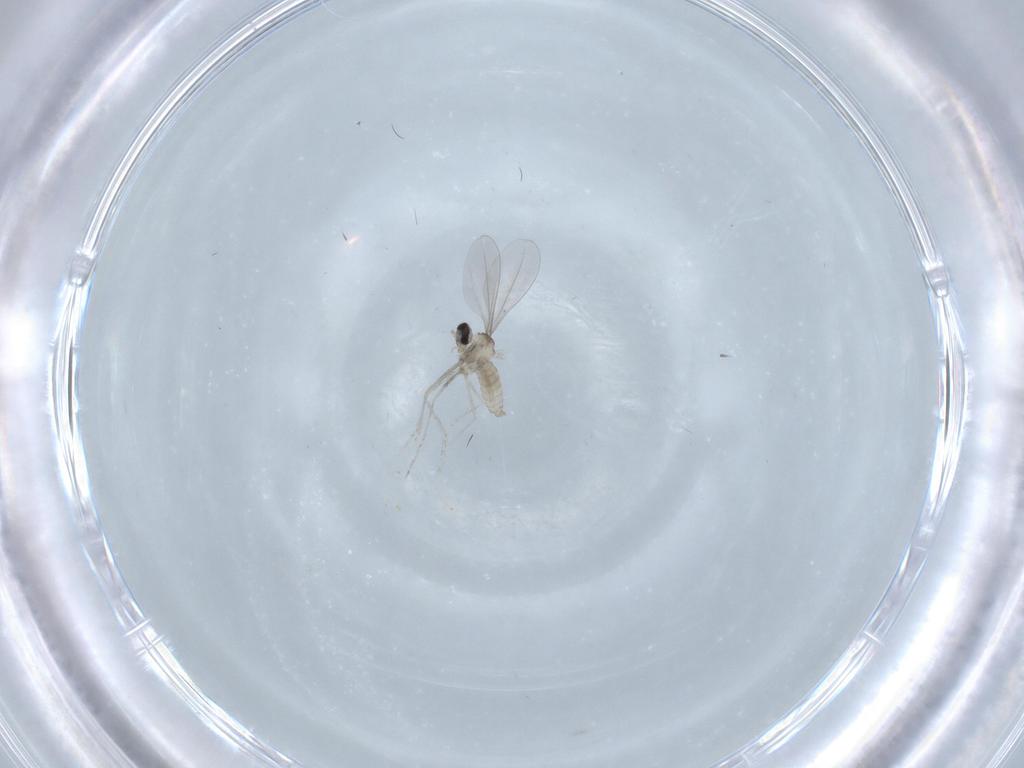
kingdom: Animalia
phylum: Arthropoda
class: Insecta
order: Diptera
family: Cecidomyiidae
